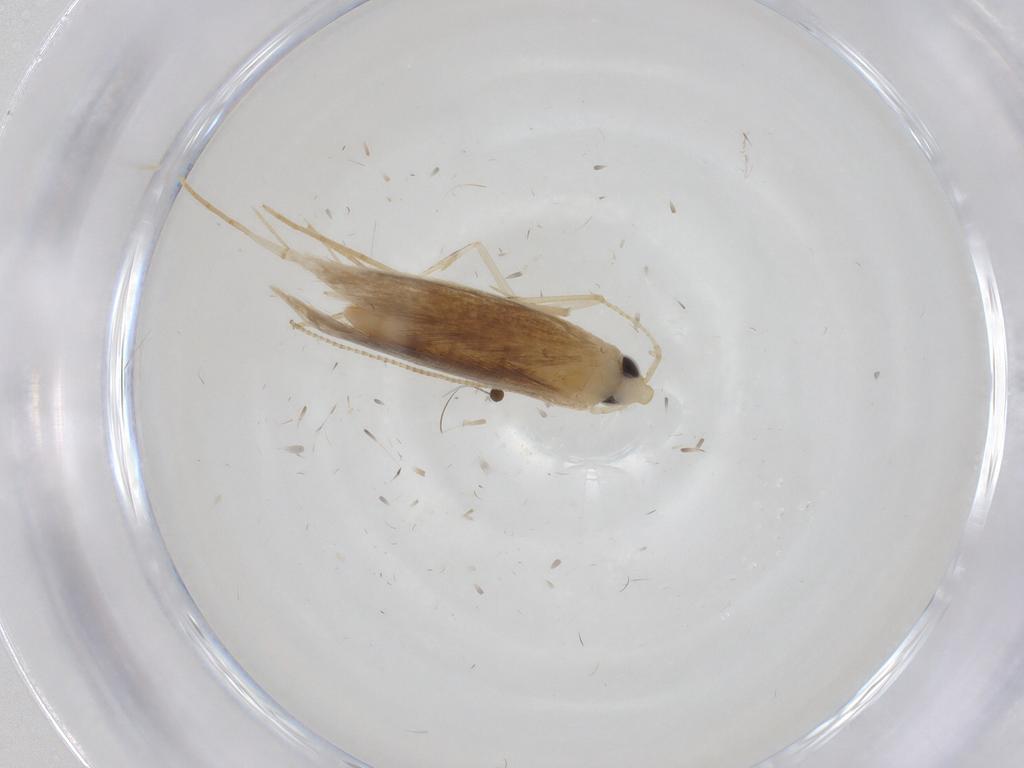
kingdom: Animalia
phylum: Arthropoda
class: Insecta
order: Lepidoptera
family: Psychidae
